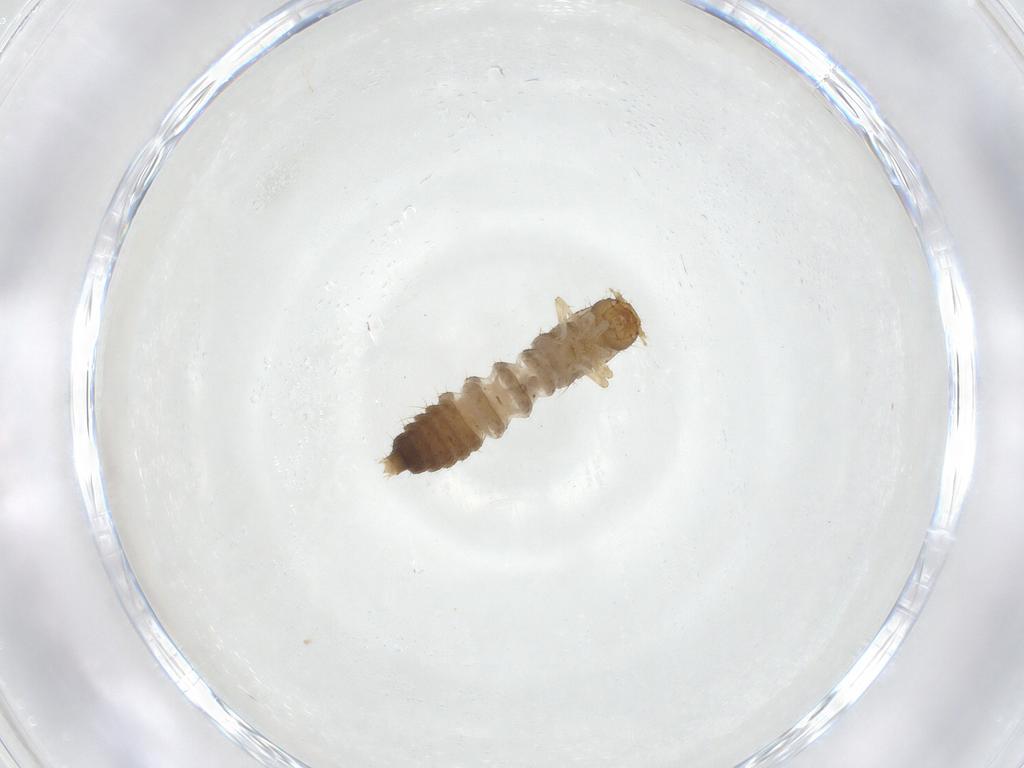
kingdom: Animalia
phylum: Arthropoda
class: Insecta
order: Coleoptera
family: Staphylinidae
